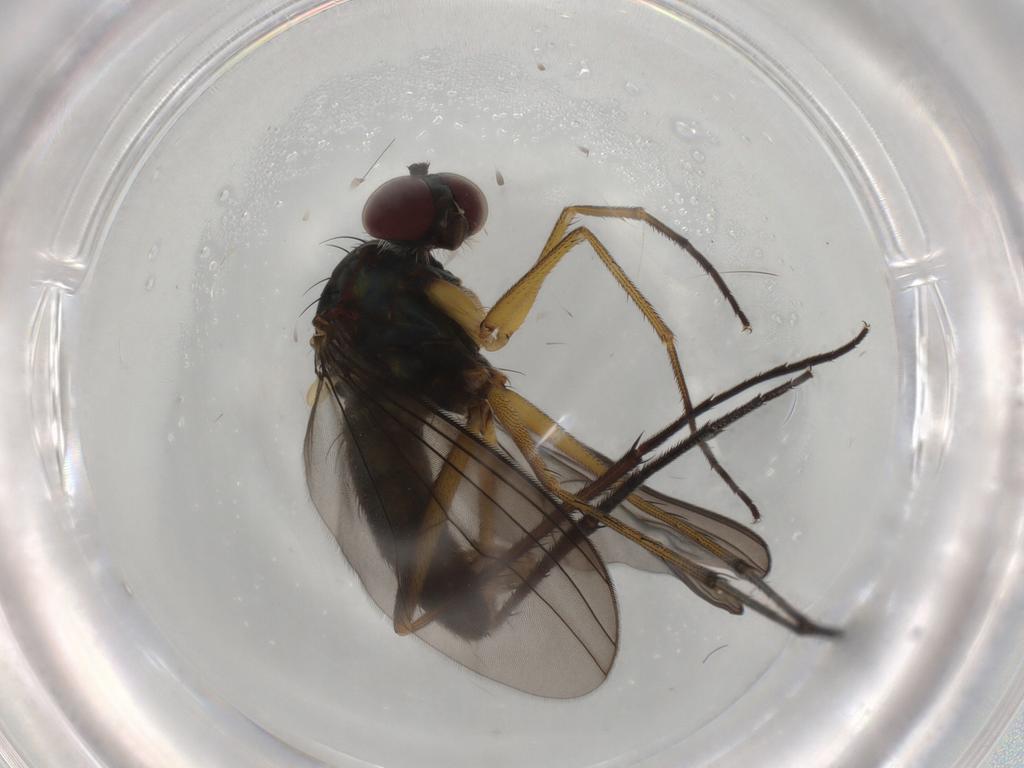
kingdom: Animalia
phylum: Arthropoda
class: Insecta
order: Diptera
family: Dolichopodidae
